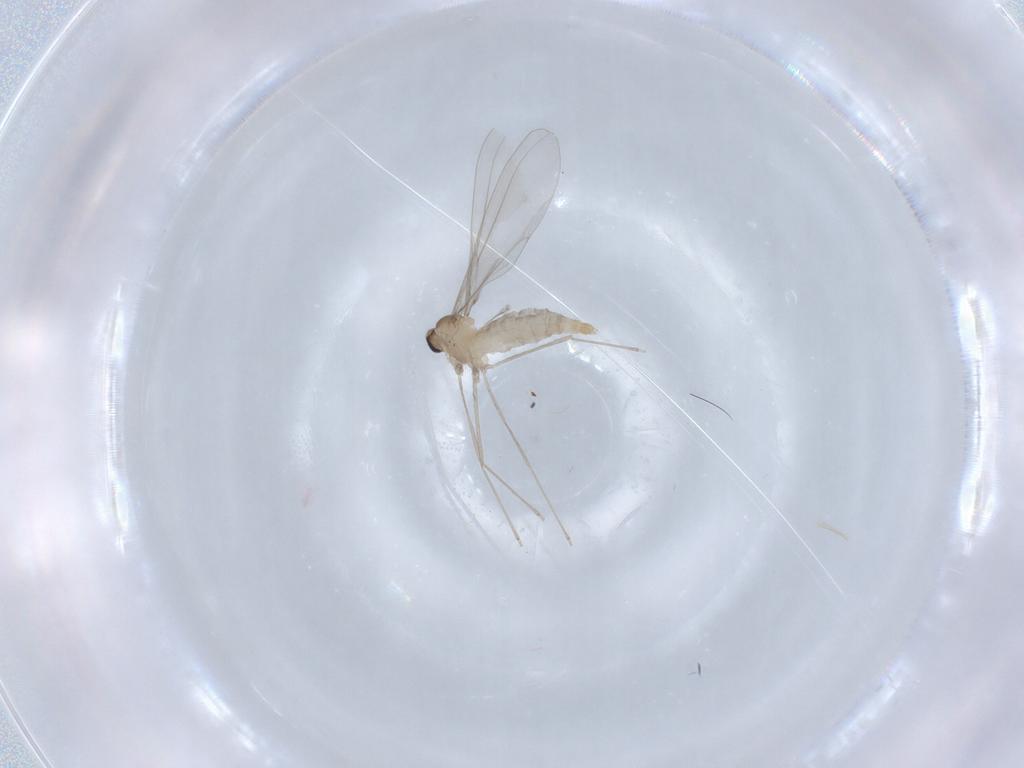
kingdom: Animalia
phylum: Arthropoda
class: Insecta
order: Diptera
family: Cecidomyiidae
